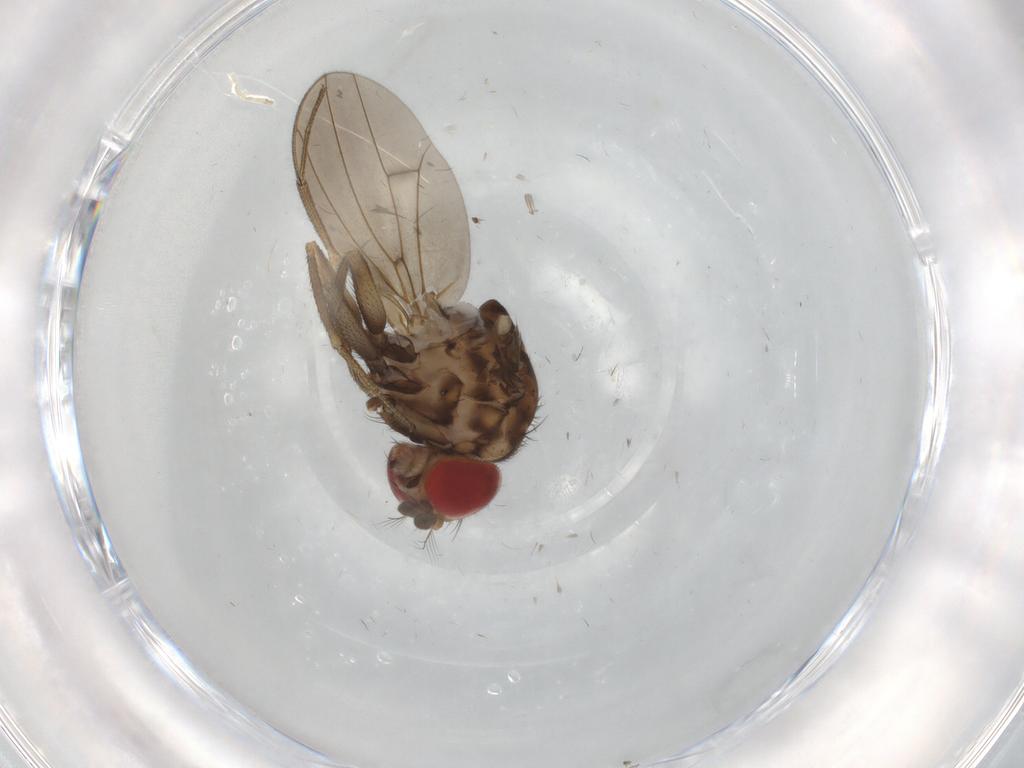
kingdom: Animalia
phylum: Arthropoda
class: Insecta
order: Diptera
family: Drosophilidae
